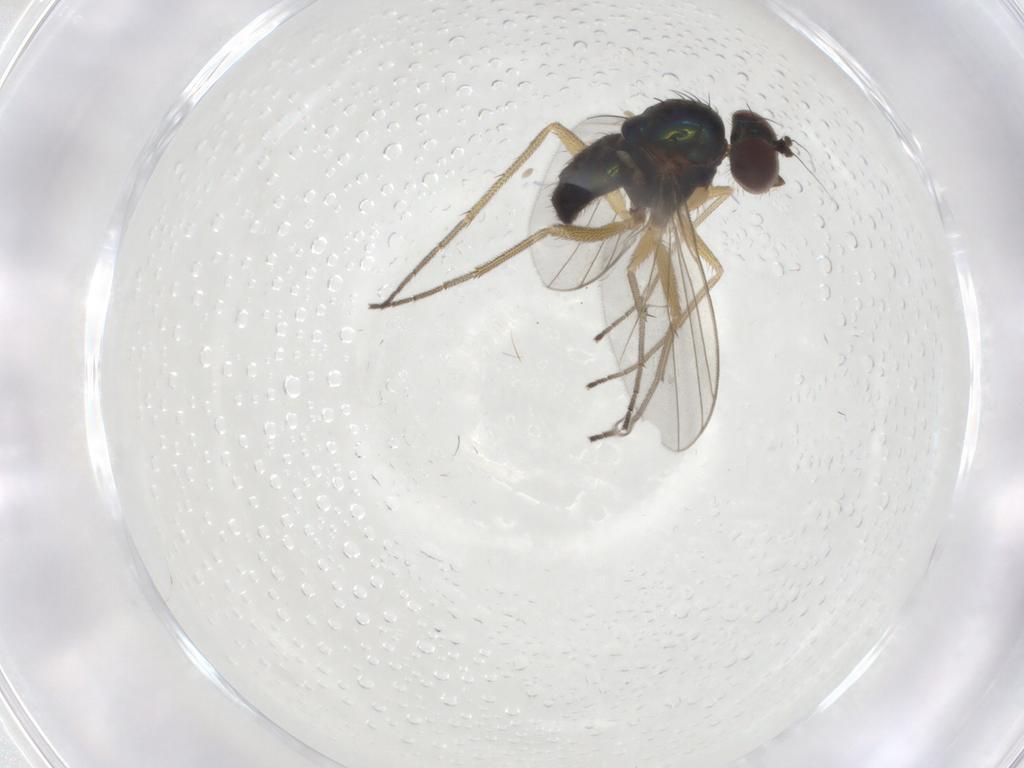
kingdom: Animalia
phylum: Arthropoda
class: Insecta
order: Diptera
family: Dolichopodidae
